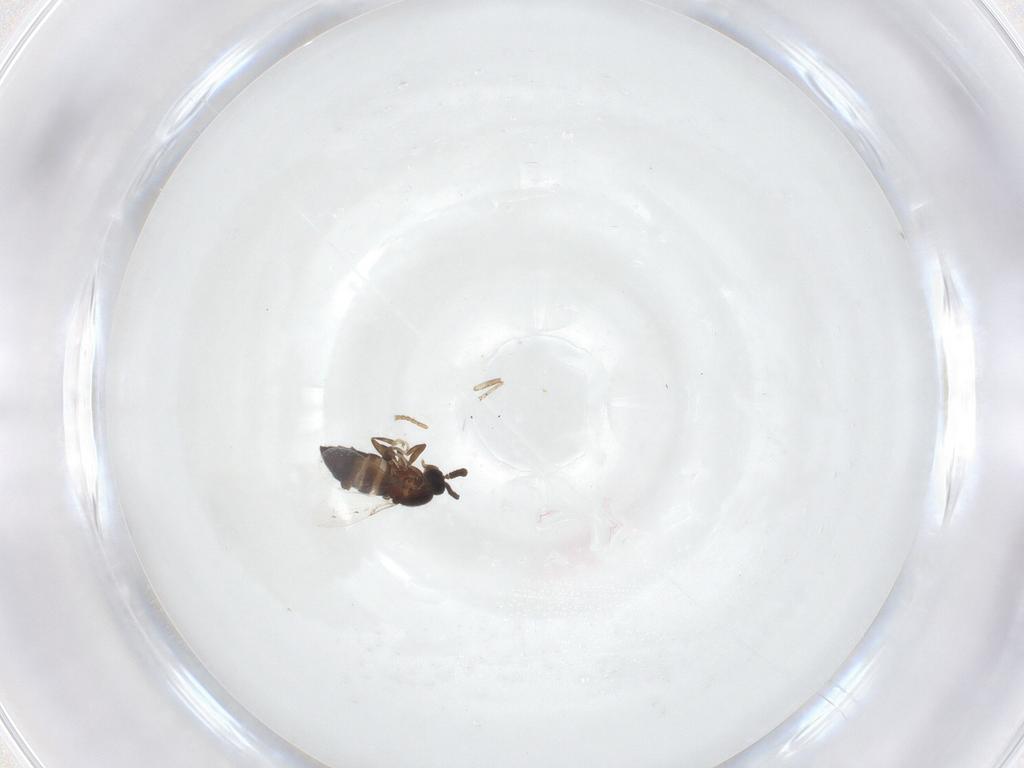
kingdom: Animalia
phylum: Arthropoda
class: Insecta
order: Diptera
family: Scatopsidae
